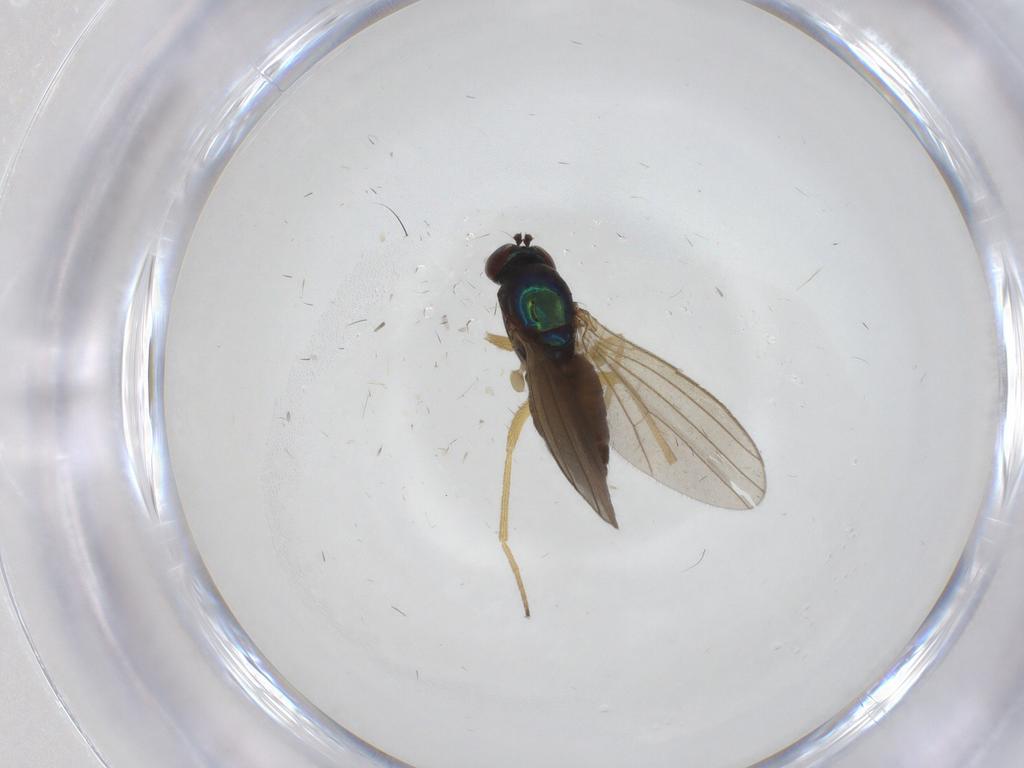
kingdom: Animalia
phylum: Arthropoda
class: Insecta
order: Diptera
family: Dolichopodidae
